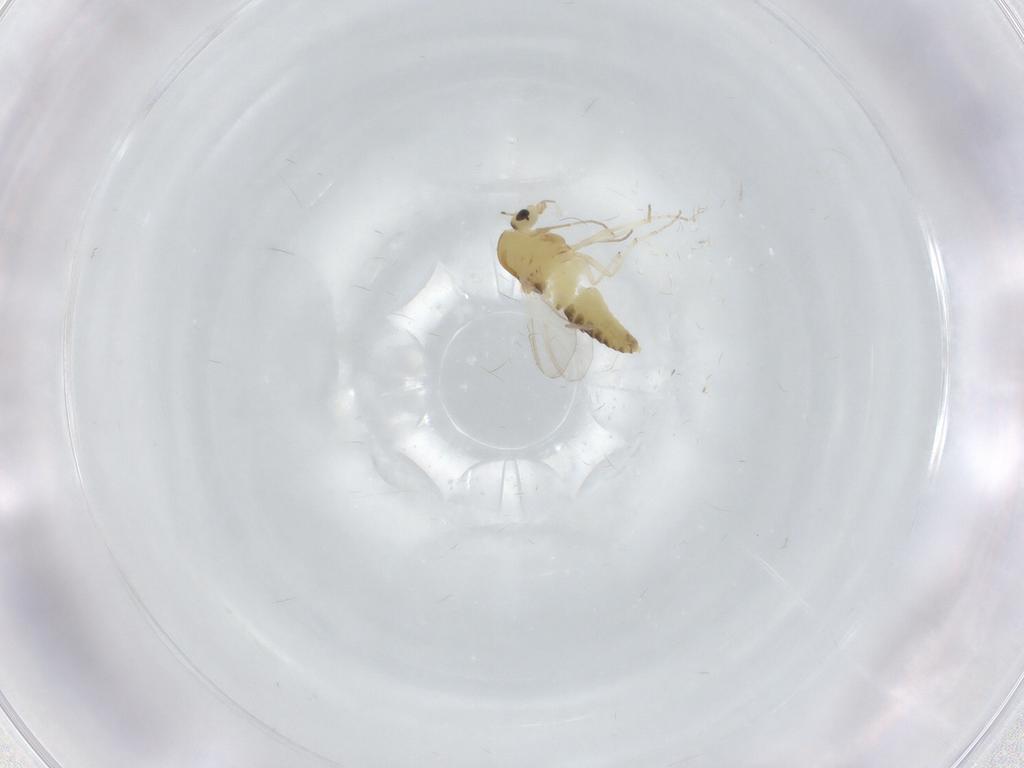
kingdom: Animalia
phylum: Arthropoda
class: Insecta
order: Diptera
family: Chironomidae
